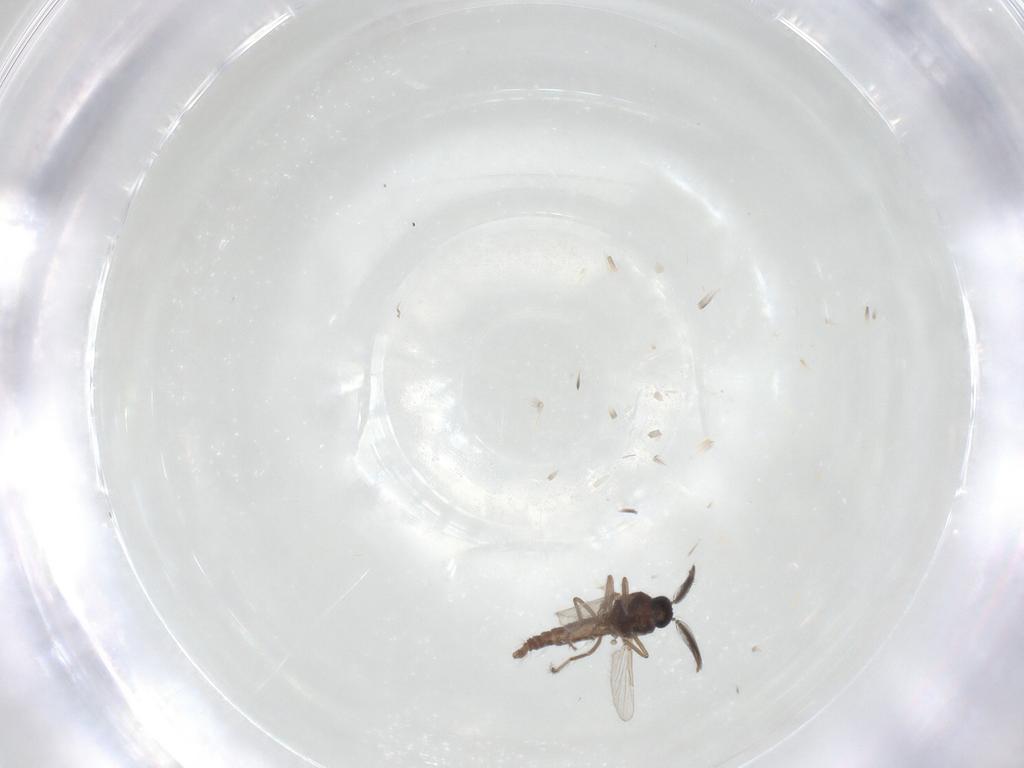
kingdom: Animalia
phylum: Arthropoda
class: Insecta
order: Diptera
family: Ceratopogonidae
